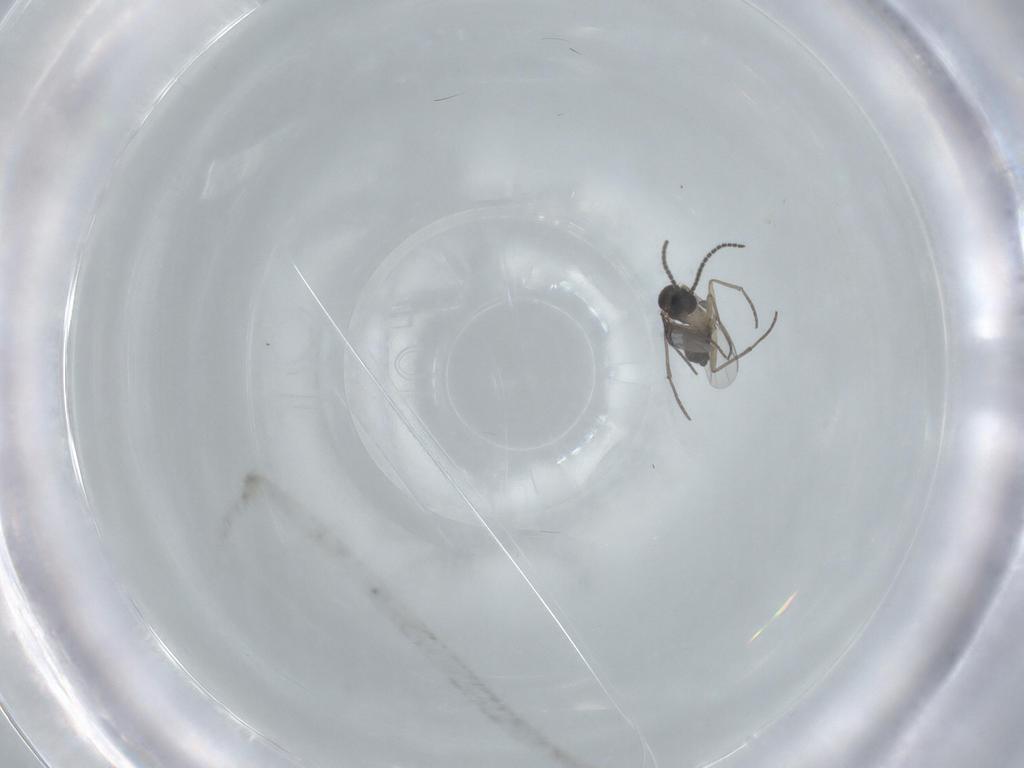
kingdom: Animalia
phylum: Arthropoda
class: Insecta
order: Diptera
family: Sciaridae
